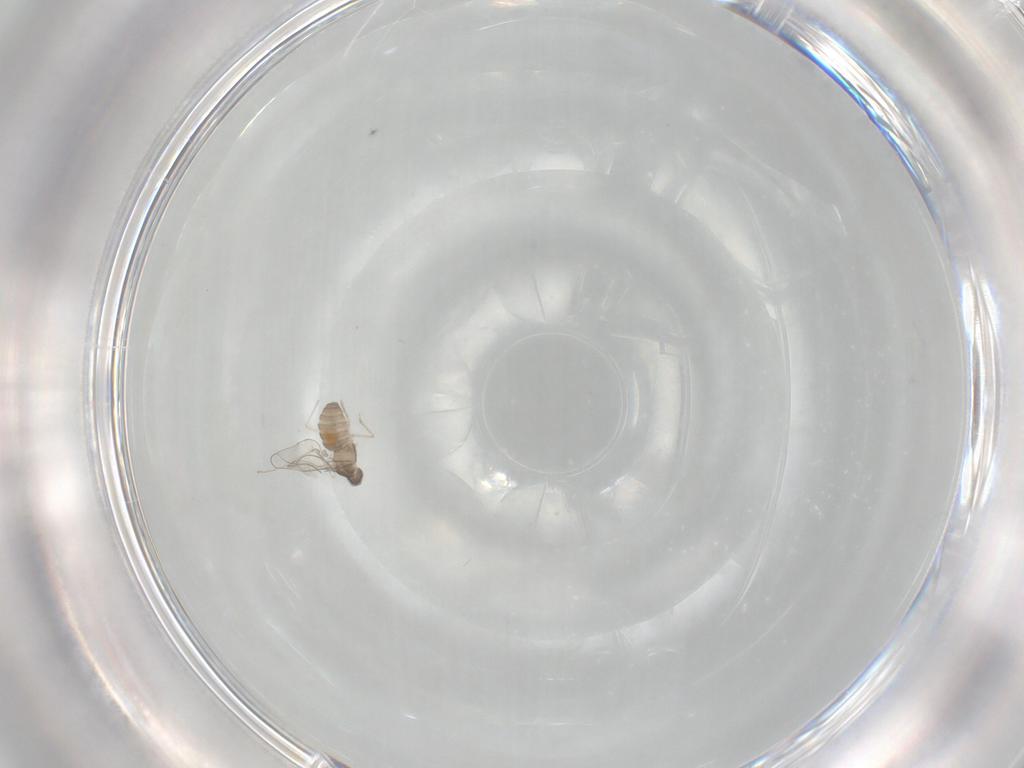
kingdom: Animalia
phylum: Arthropoda
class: Insecta
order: Diptera
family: Cecidomyiidae
